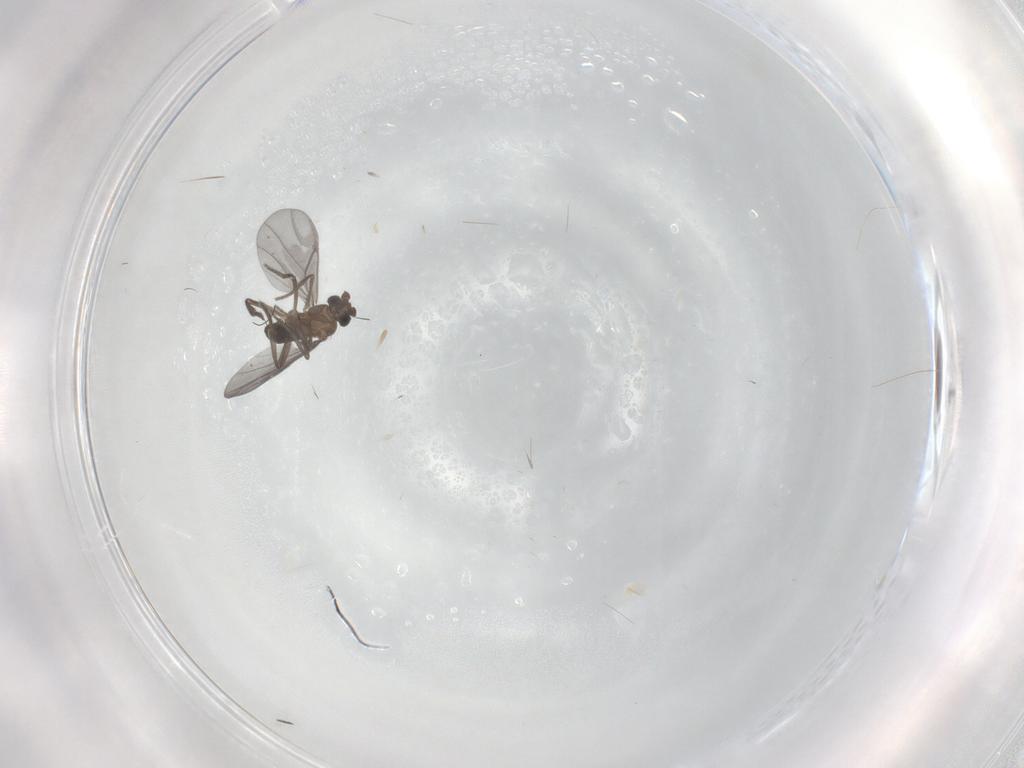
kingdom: Animalia
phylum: Arthropoda
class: Insecta
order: Diptera
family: Phoridae
